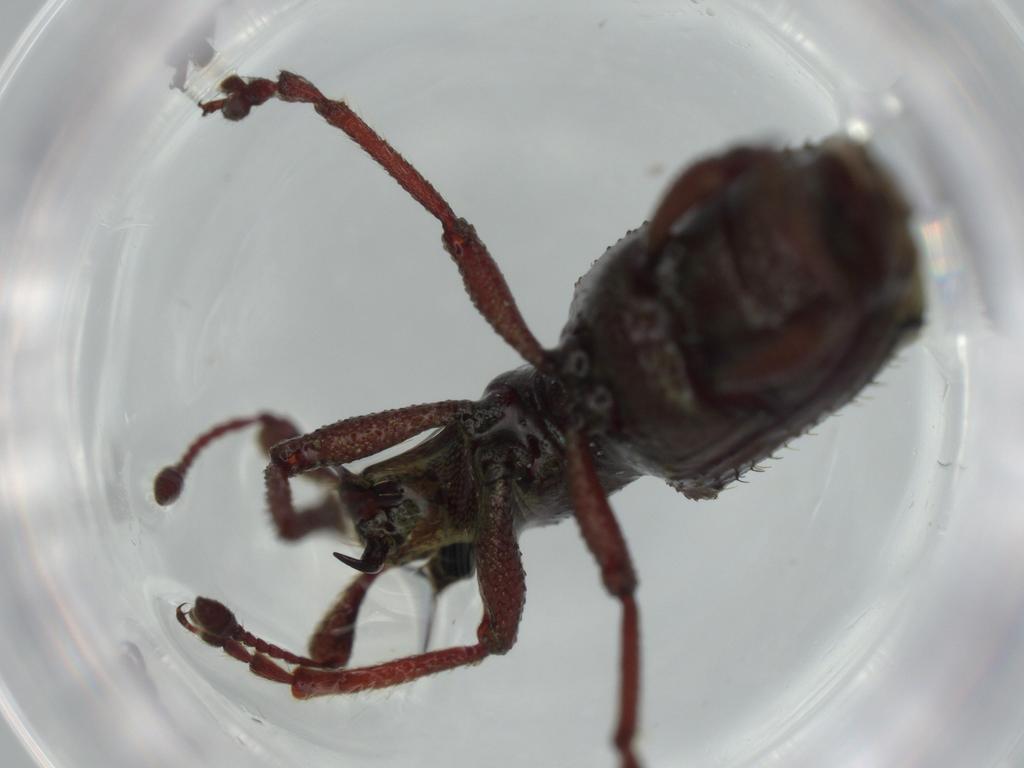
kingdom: Animalia
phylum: Arthropoda
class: Insecta
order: Coleoptera
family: Curculionidae
